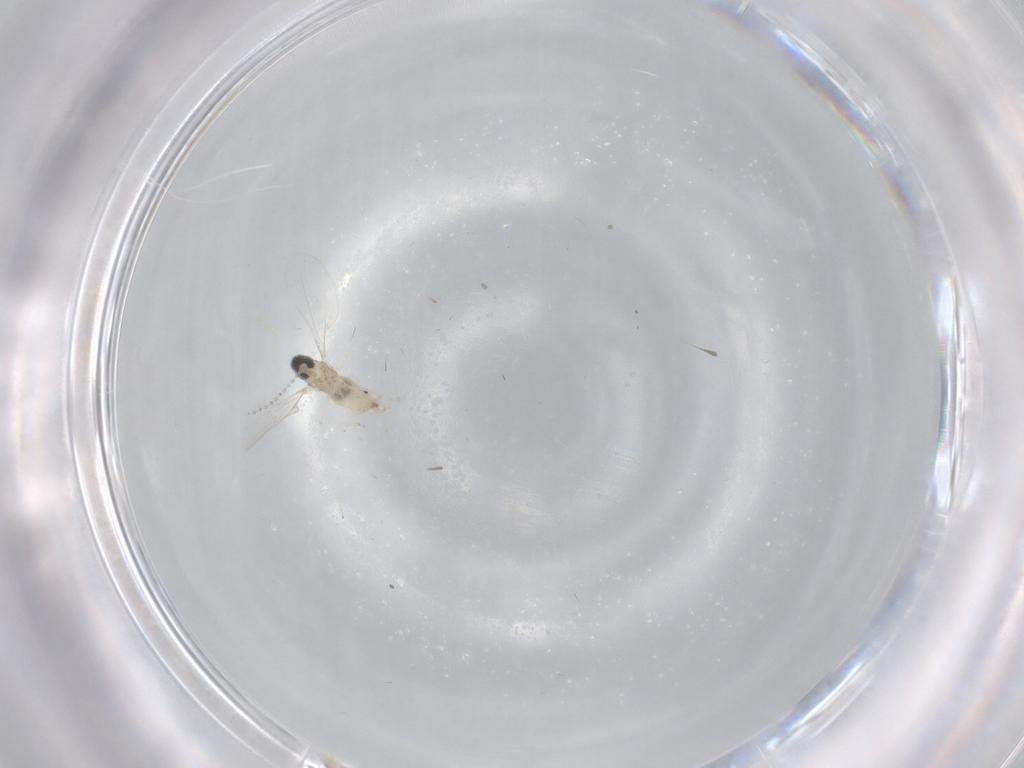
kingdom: Animalia
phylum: Arthropoda
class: Insecta
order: Diptera
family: Cecidomyiidae
